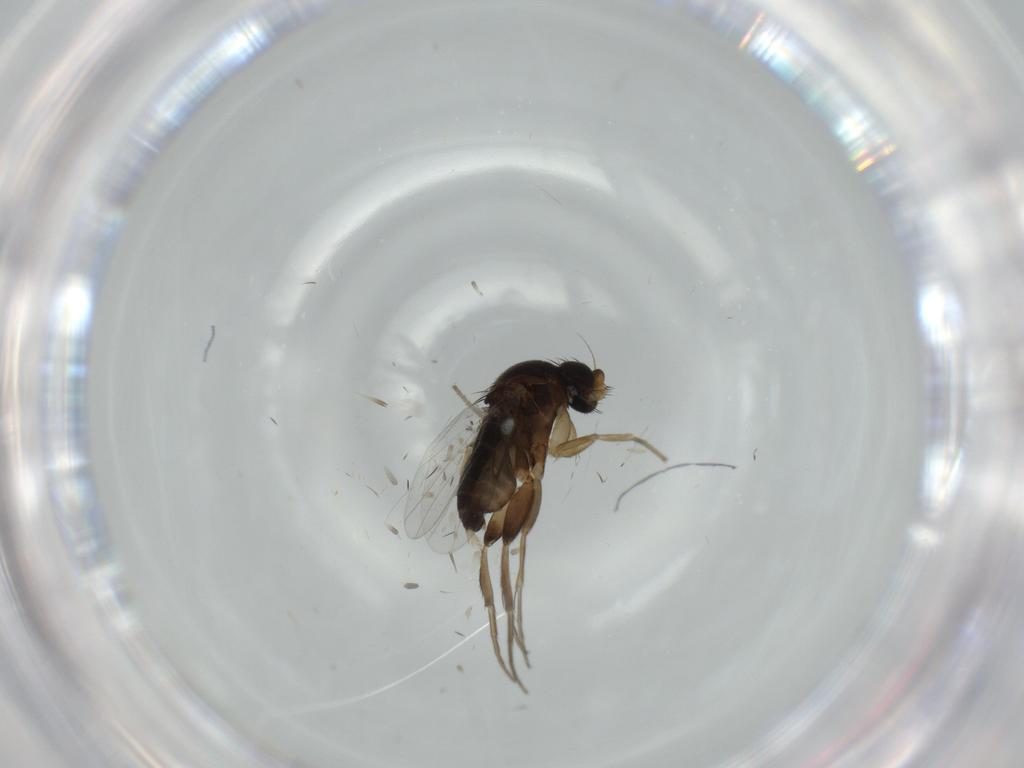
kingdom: Animalia
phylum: Arthropoda
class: Insecta
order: Diptera
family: Phoridae
